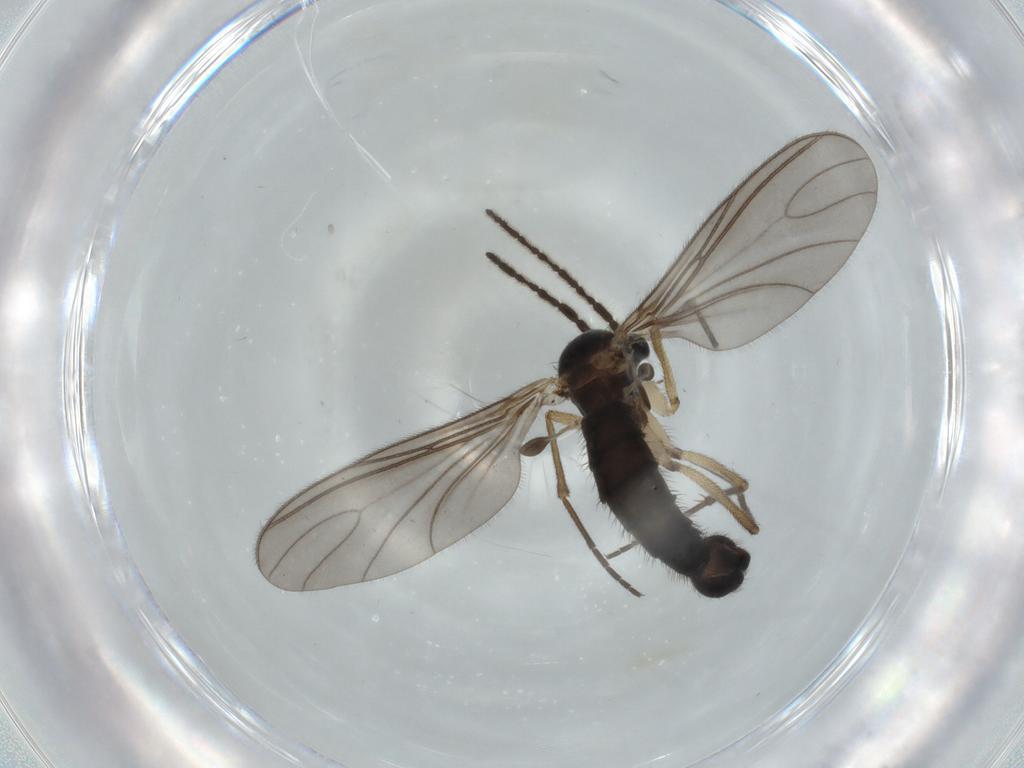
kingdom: Animalia
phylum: Arthropoda
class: Insecta
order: Diptera
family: Sciaridae
